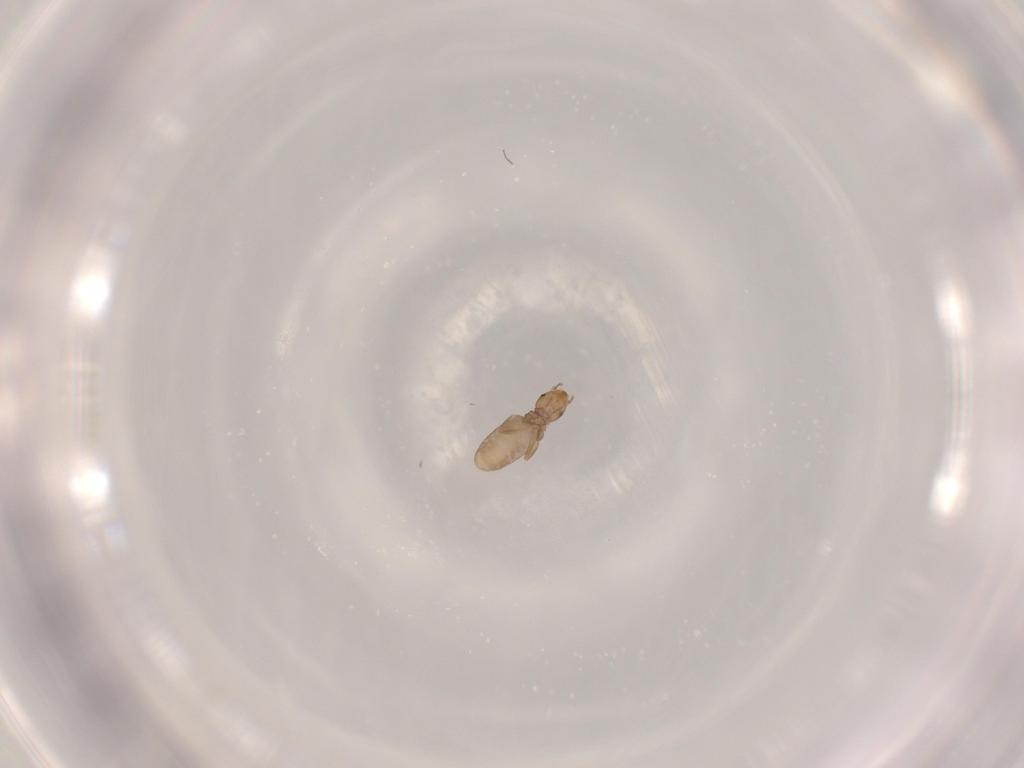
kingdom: Animalia
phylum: Arthropoda
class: Insecta
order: Psocodea
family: Liposcelididae
